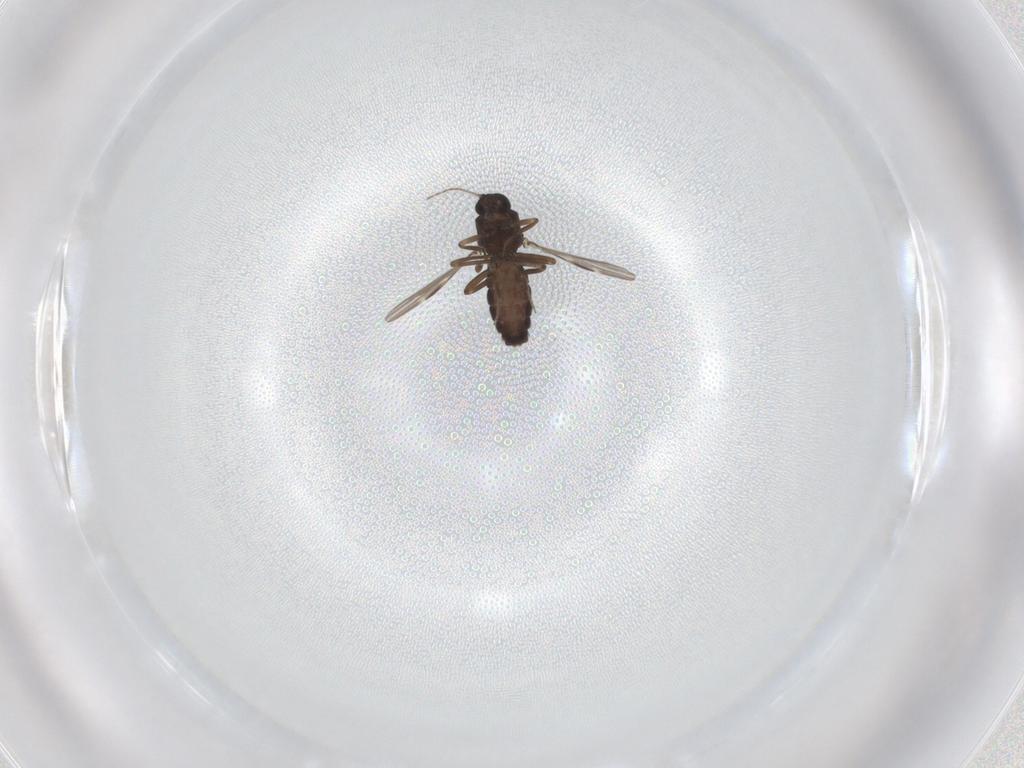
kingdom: Animalia
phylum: Arthropoda
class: Insecta
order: Diptera
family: Ceratopogonidae
